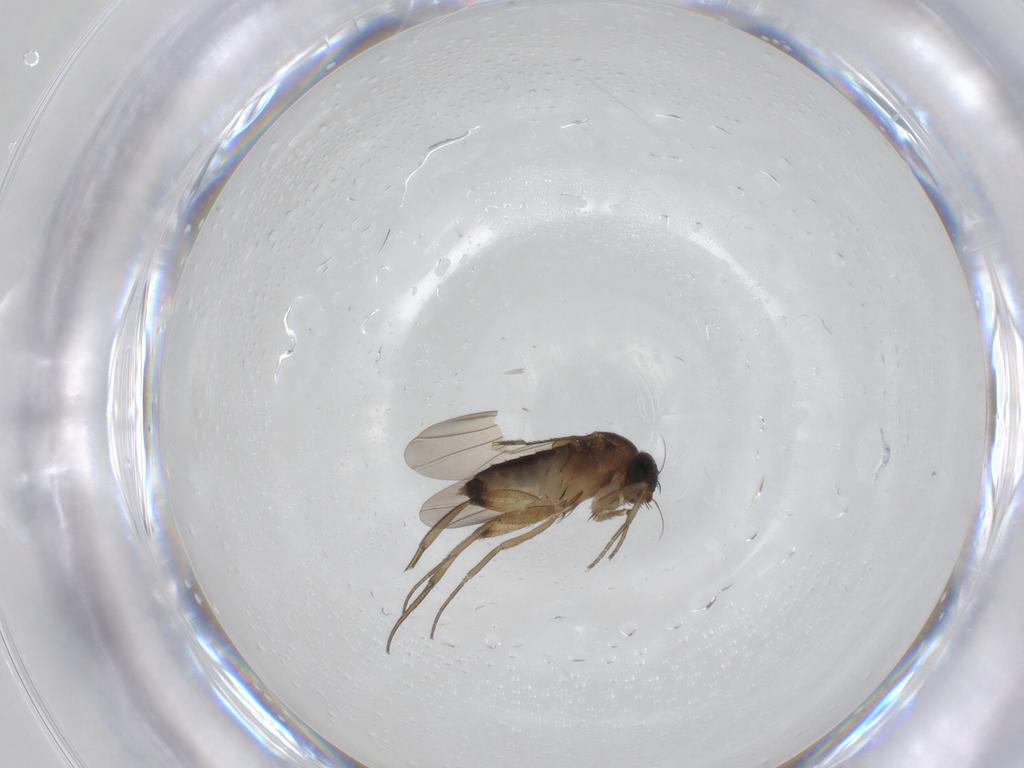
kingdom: Animalia
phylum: Arthropoda
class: Insecta
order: Diptera
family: Phoridae
